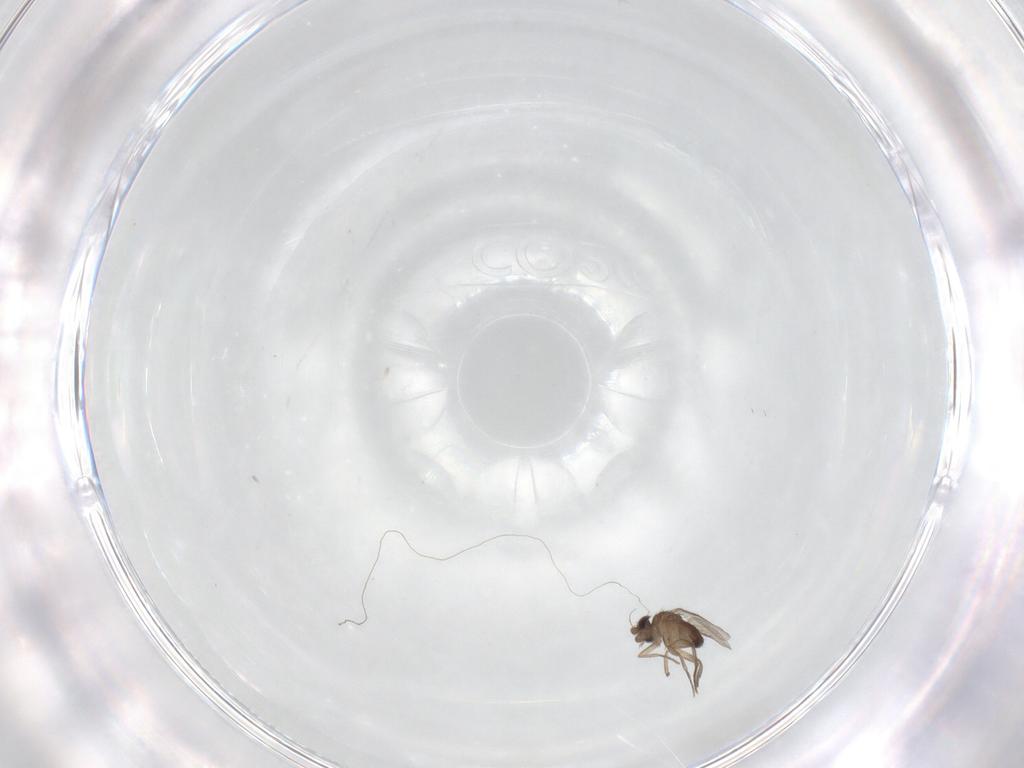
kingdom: Animalia
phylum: Arthropoda
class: Insecta
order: Diptera
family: Phoridae
